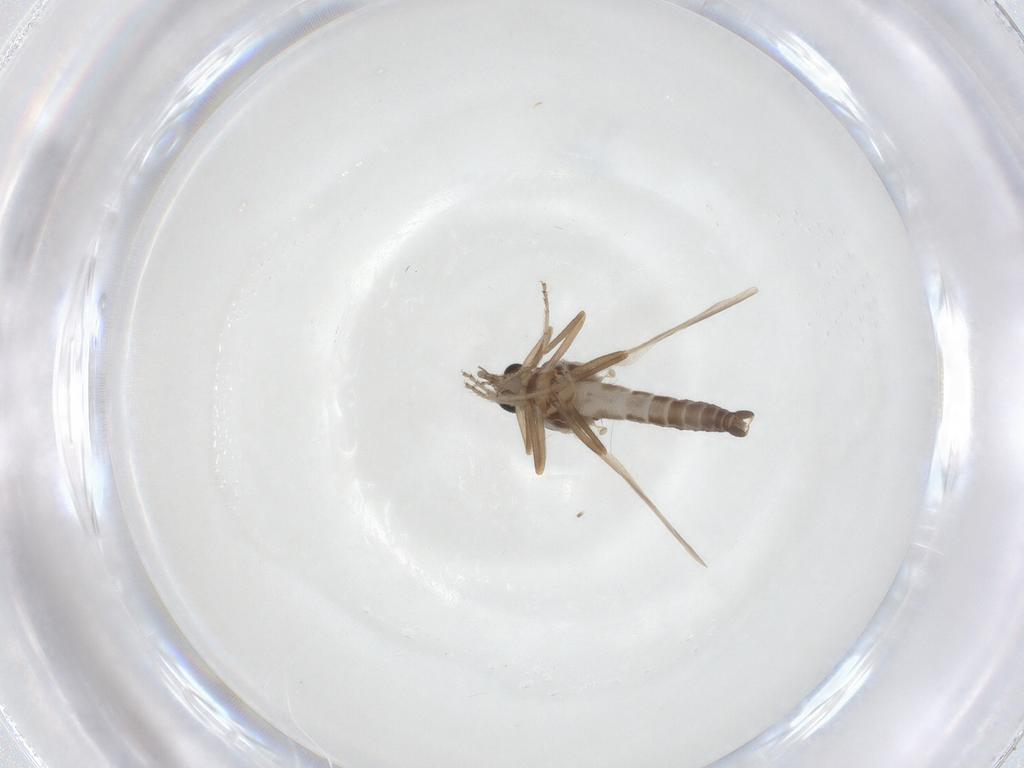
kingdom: Animalia
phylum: Arthropoda
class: Insecta
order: Diptera
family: Ceratopogonidae
